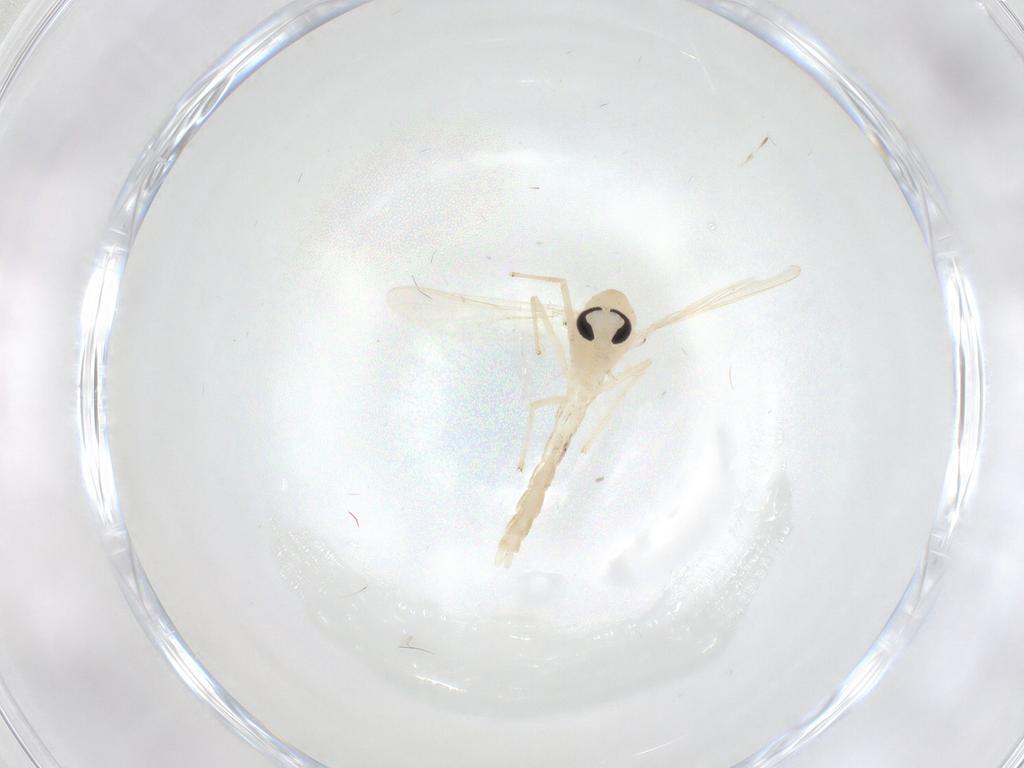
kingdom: Animalia
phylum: Arthropoda
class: Insecta
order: Diptera
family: Chironomidae
